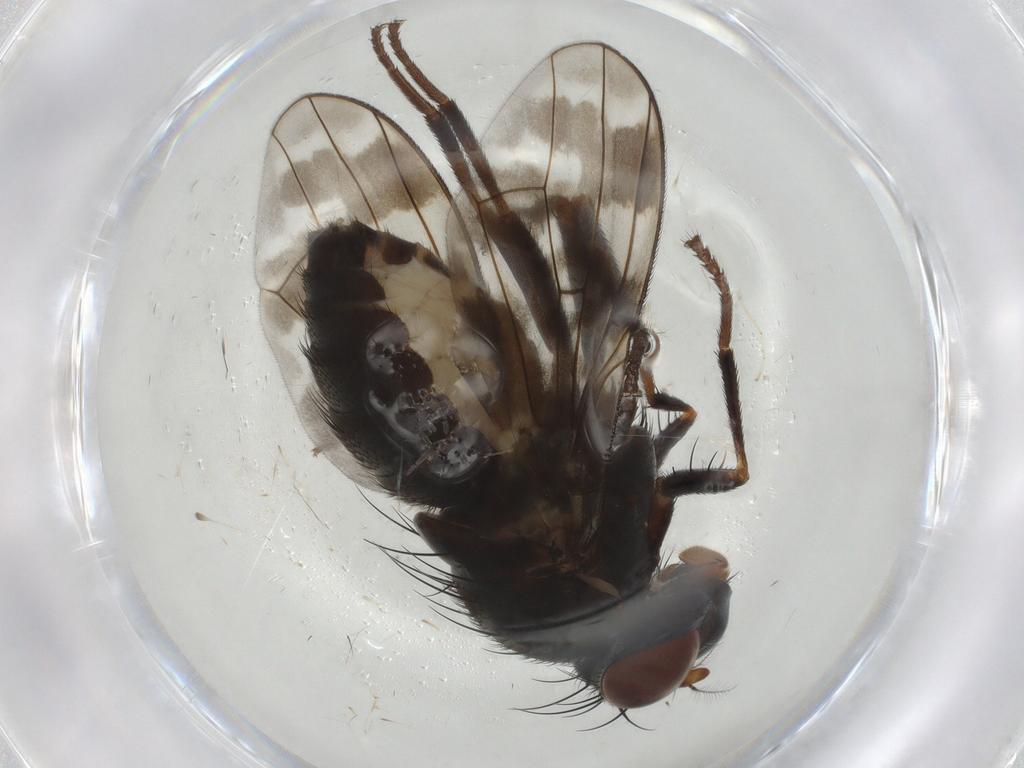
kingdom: Animalia
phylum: Arthropoda
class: Insecta
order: Diptera
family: Mycetophilidae
